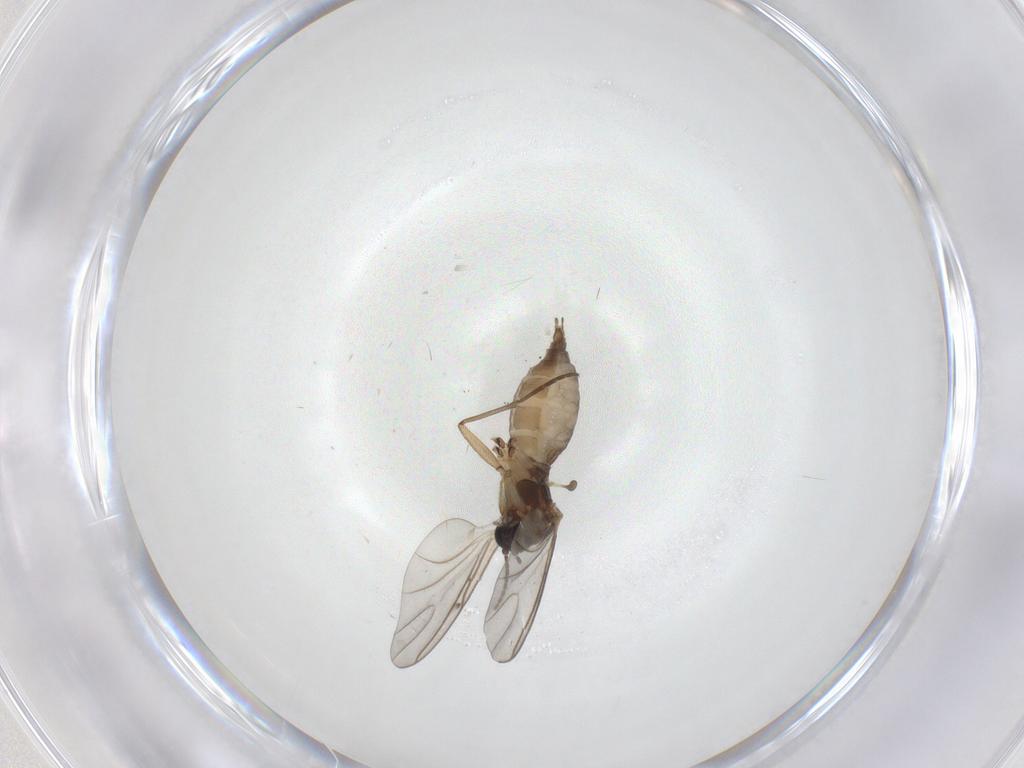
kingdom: Animalia
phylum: Arthropoda
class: Insecta
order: Diptera
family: Sciaridae
